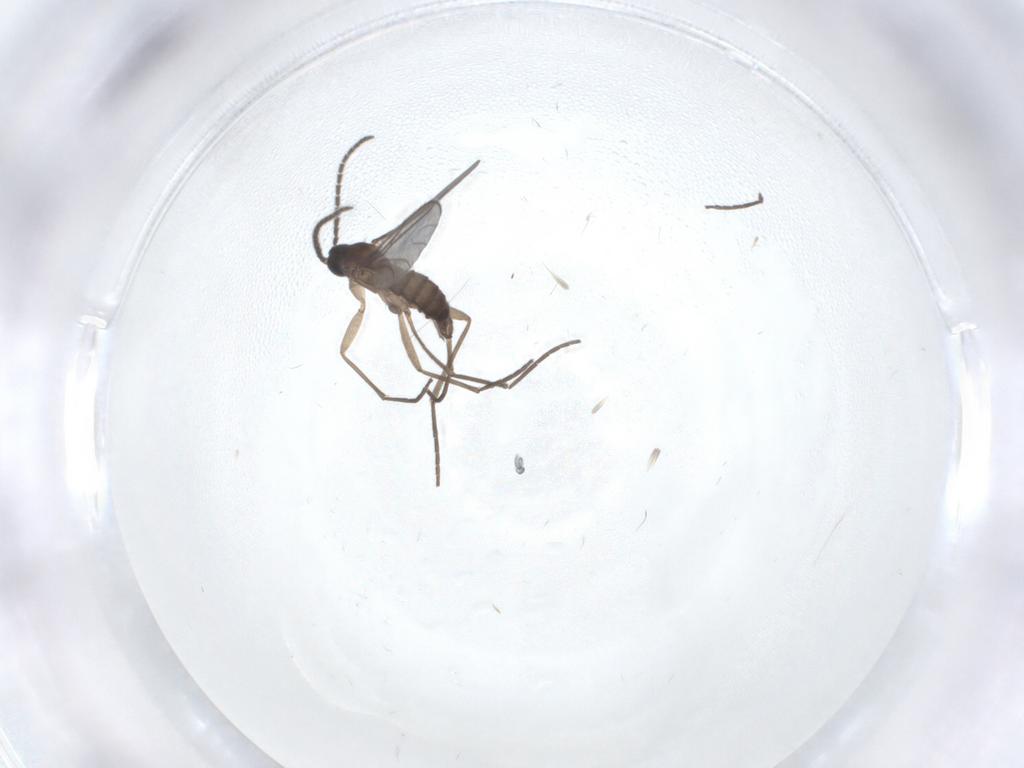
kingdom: Animalia
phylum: Arthropoda
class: Insecta
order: Diptera
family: Sciaridae
